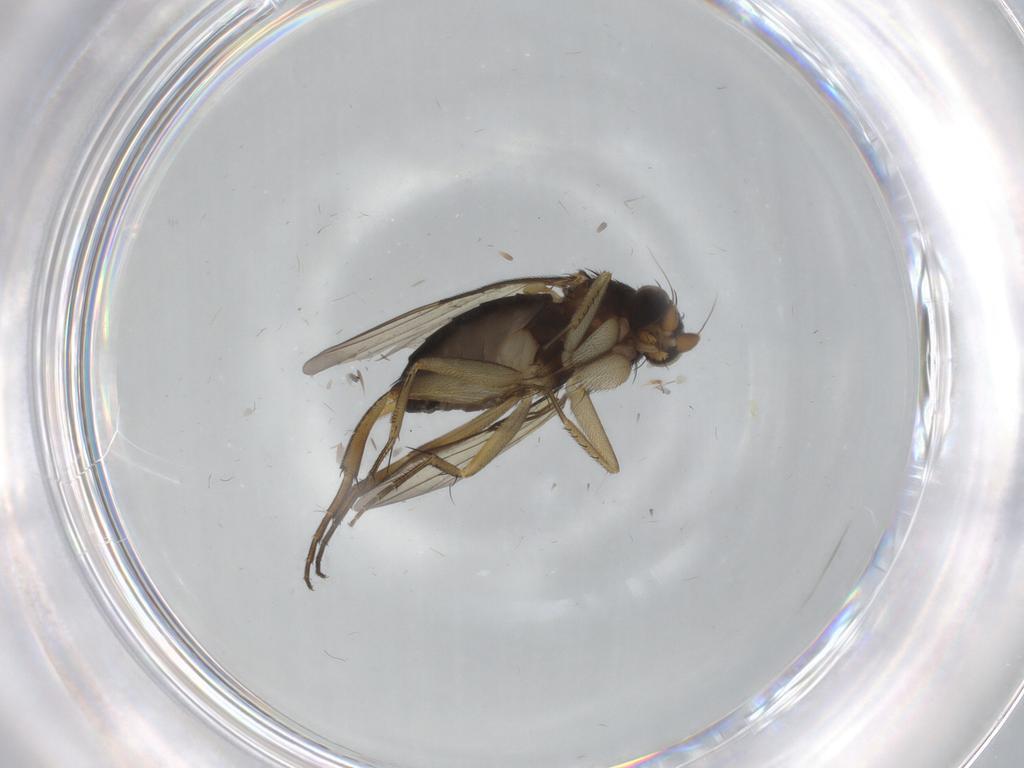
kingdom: Animalia
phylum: Arthropoda
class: Insecta
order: Diptera
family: Phoridae
